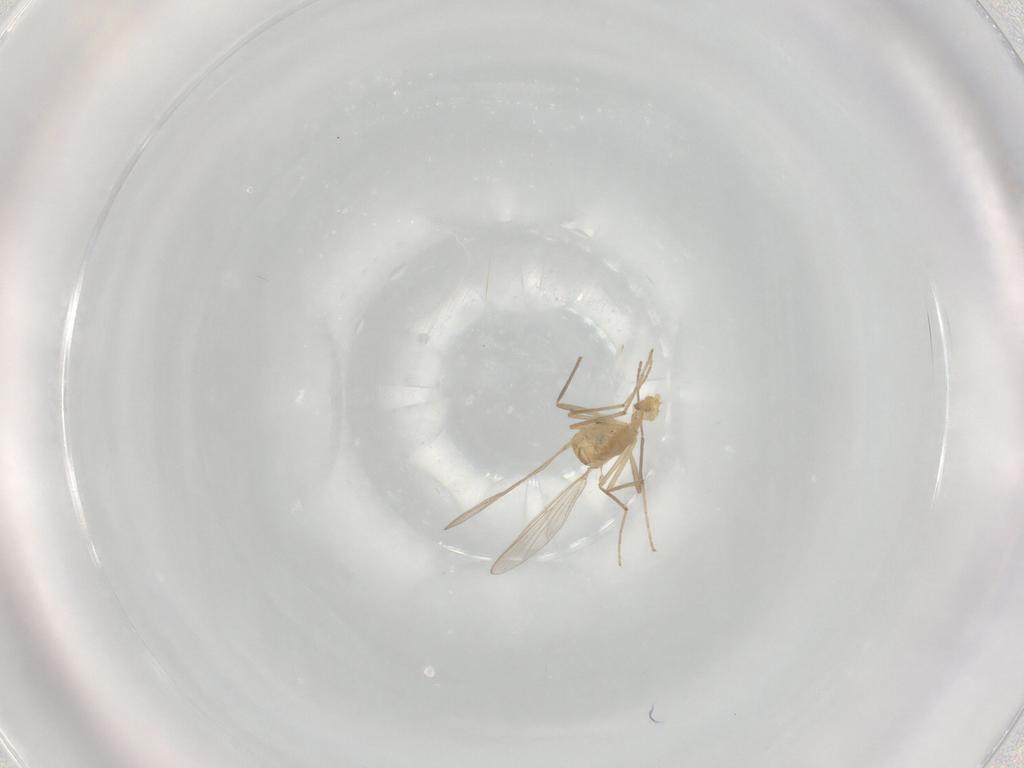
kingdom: Animalia
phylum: Arthropoda
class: Insecta
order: Diptera
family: Chironomidae
